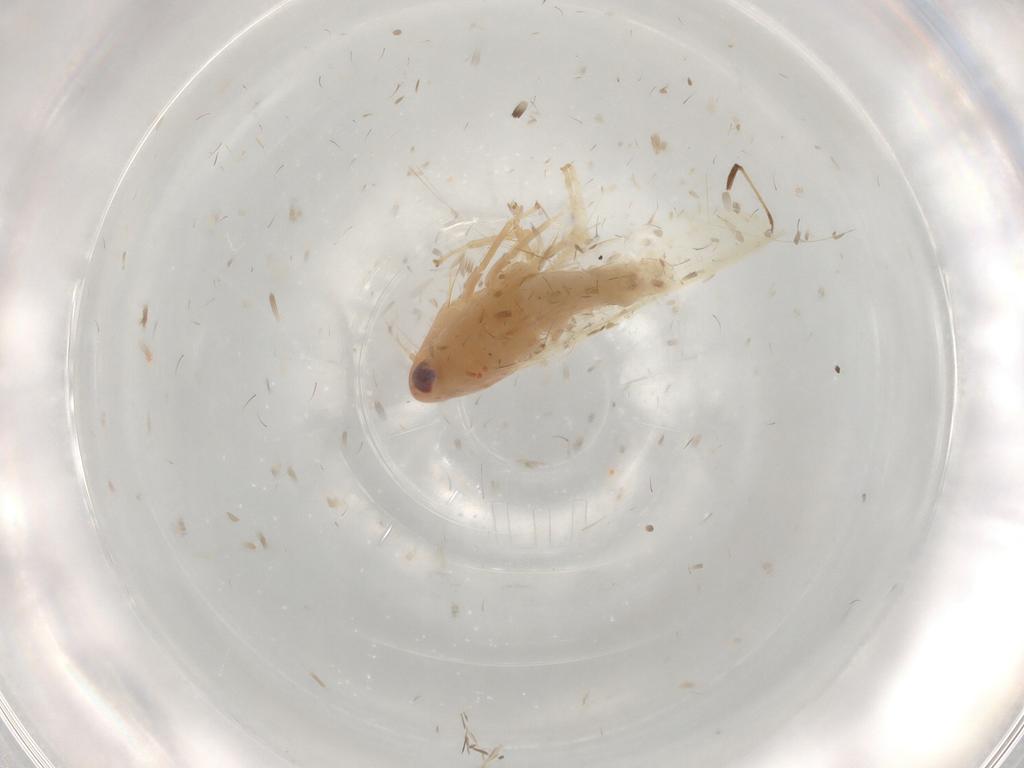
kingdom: Animalia
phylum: Arthropoda
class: Insecta
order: Hemiptera
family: Cicadellidae
